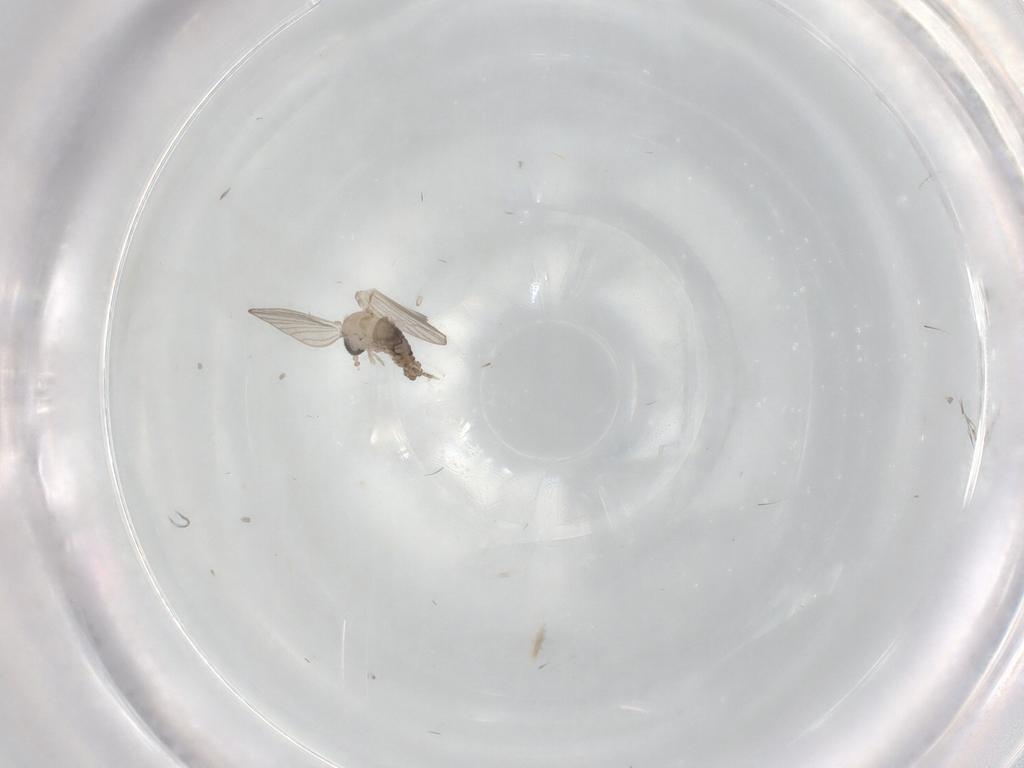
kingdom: Animalia
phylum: Arthropoda
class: Insecta
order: Diptera
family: Psychodidae
